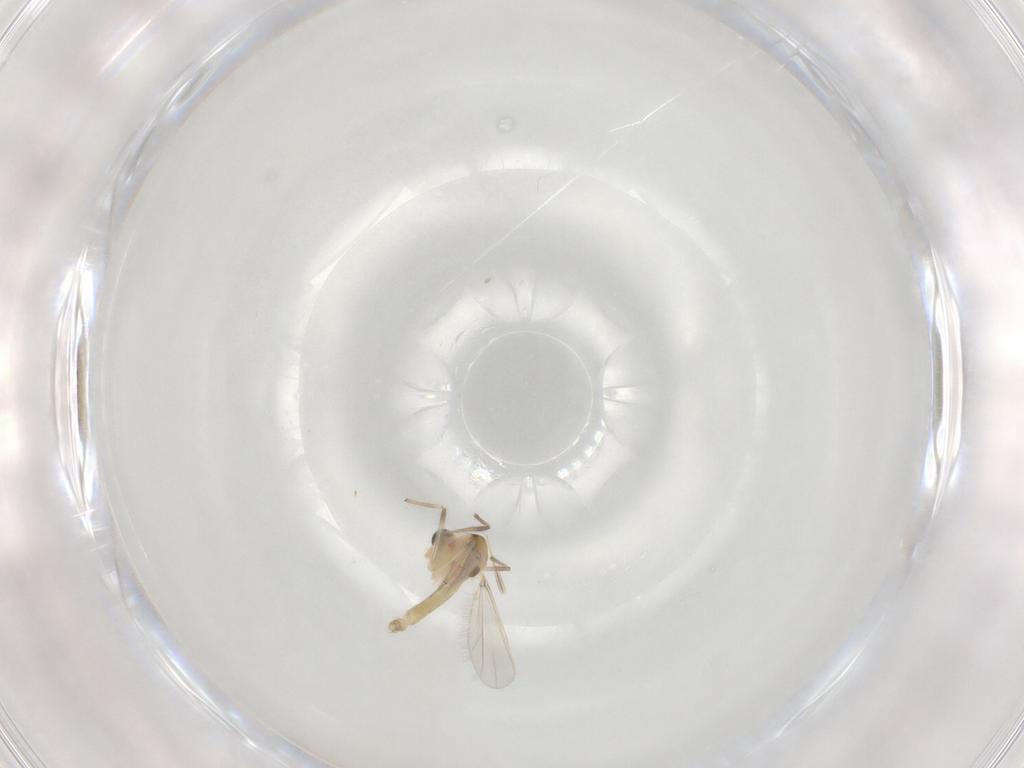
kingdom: Animalia
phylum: Arthropoda
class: Insecta
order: Diptera
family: Chironomidae
